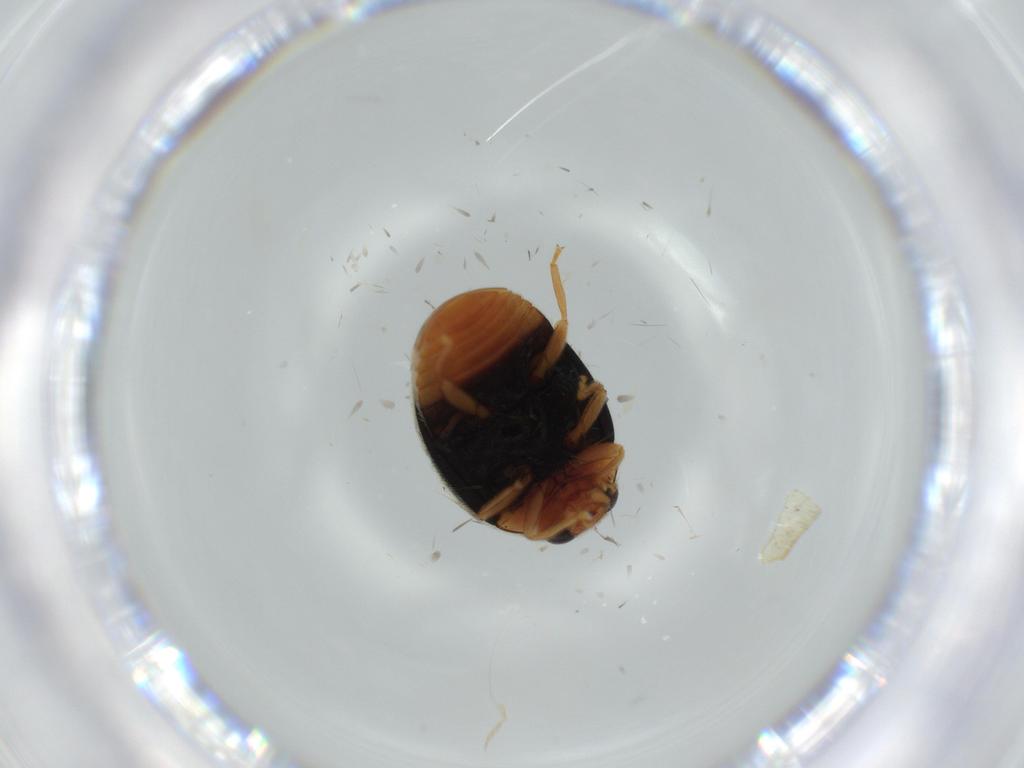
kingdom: Animalia
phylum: Arthropoda
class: Insecta
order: Coleoptera
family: Coccinellidae
